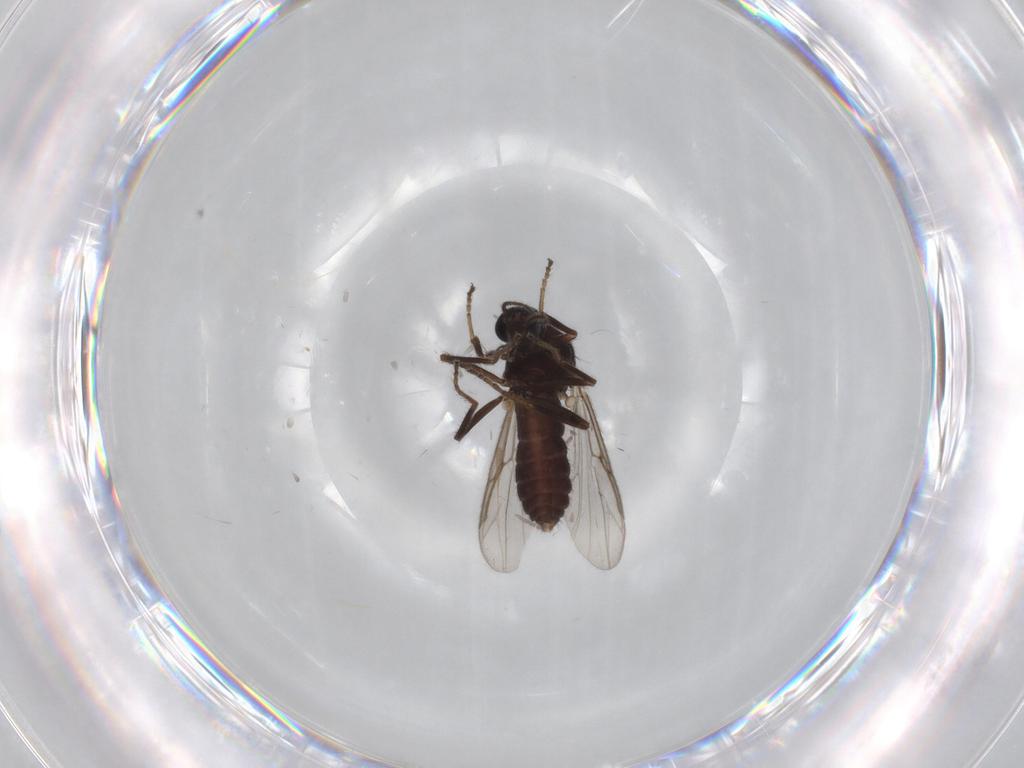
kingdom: Animalia
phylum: Arthropoda
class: Insecta
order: Diptera
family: Ceratopogonidae
